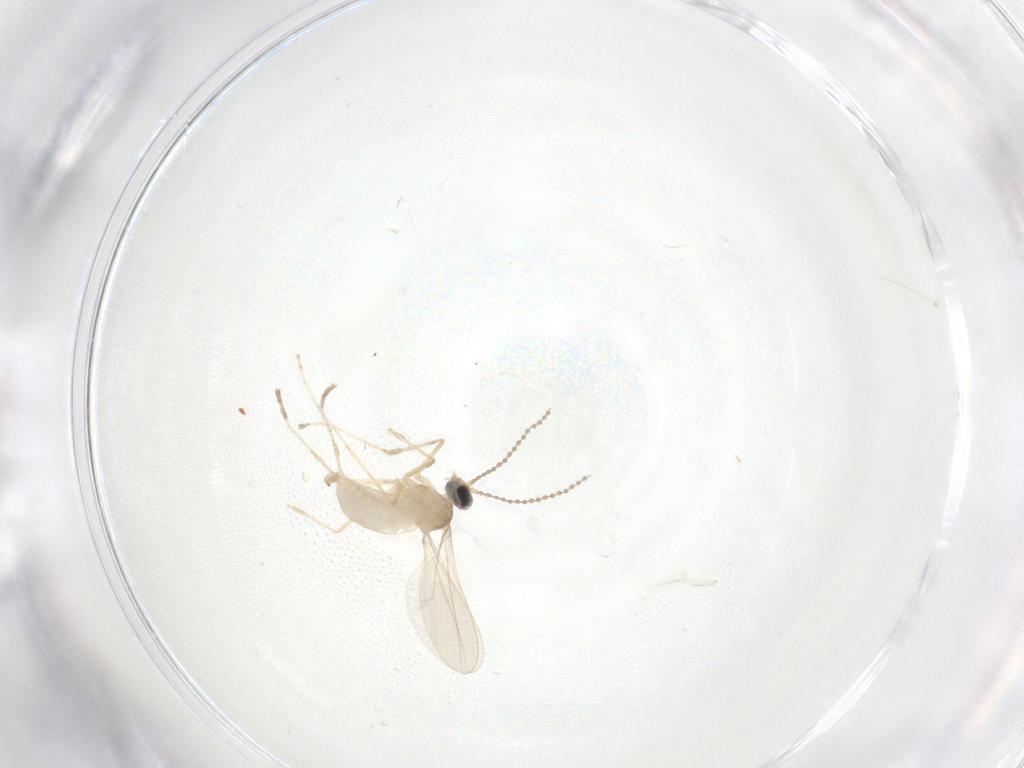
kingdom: Animalia
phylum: Arthropoda
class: Insecta
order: Diptera
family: Cecidomyiidae
